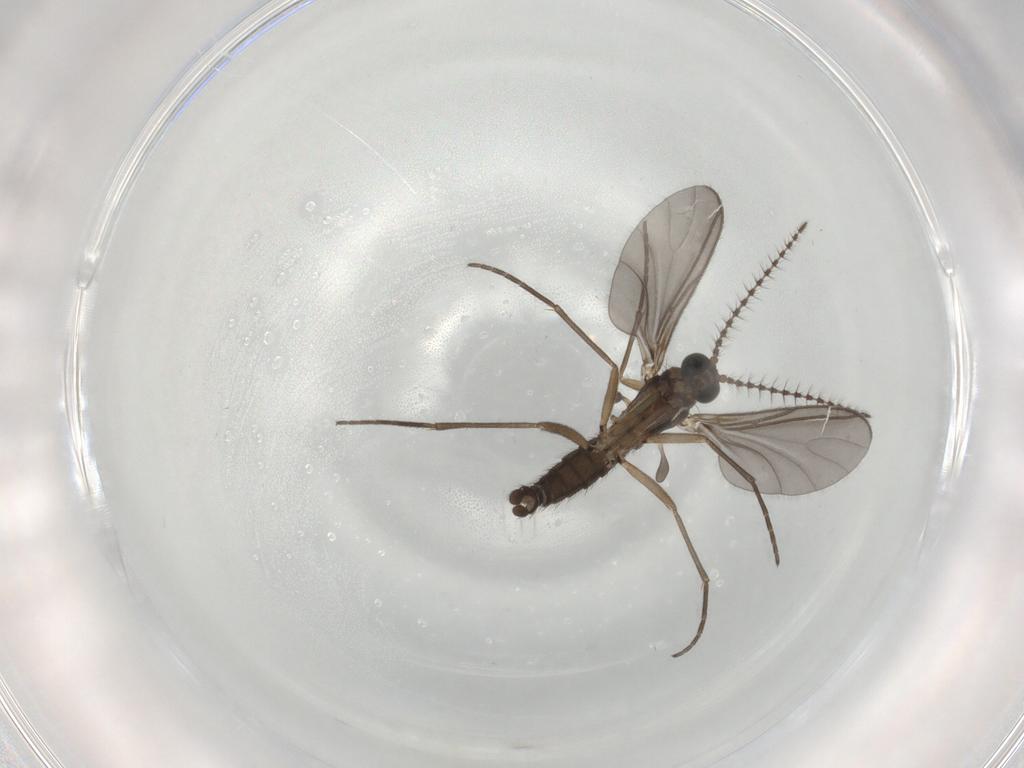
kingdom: Animalia
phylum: Arthropoda
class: Insecta
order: Diptera
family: Sciaridae
